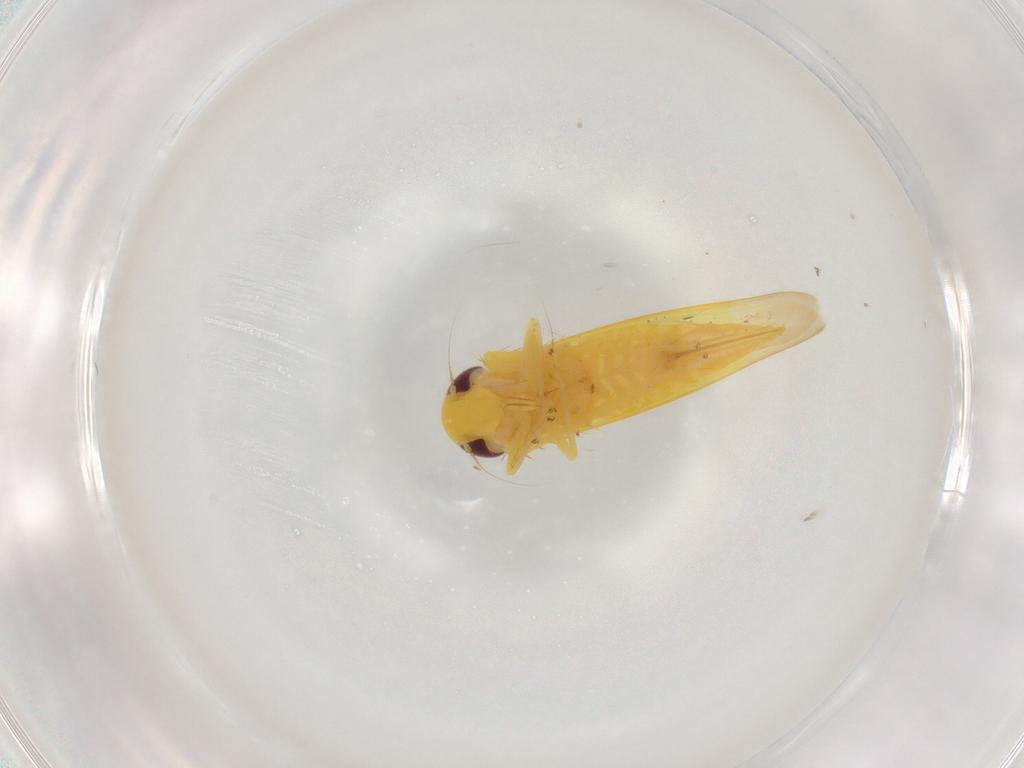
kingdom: Animalia
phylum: Arthropoda
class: Insecta
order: Hemiptera
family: Cicadellidae
